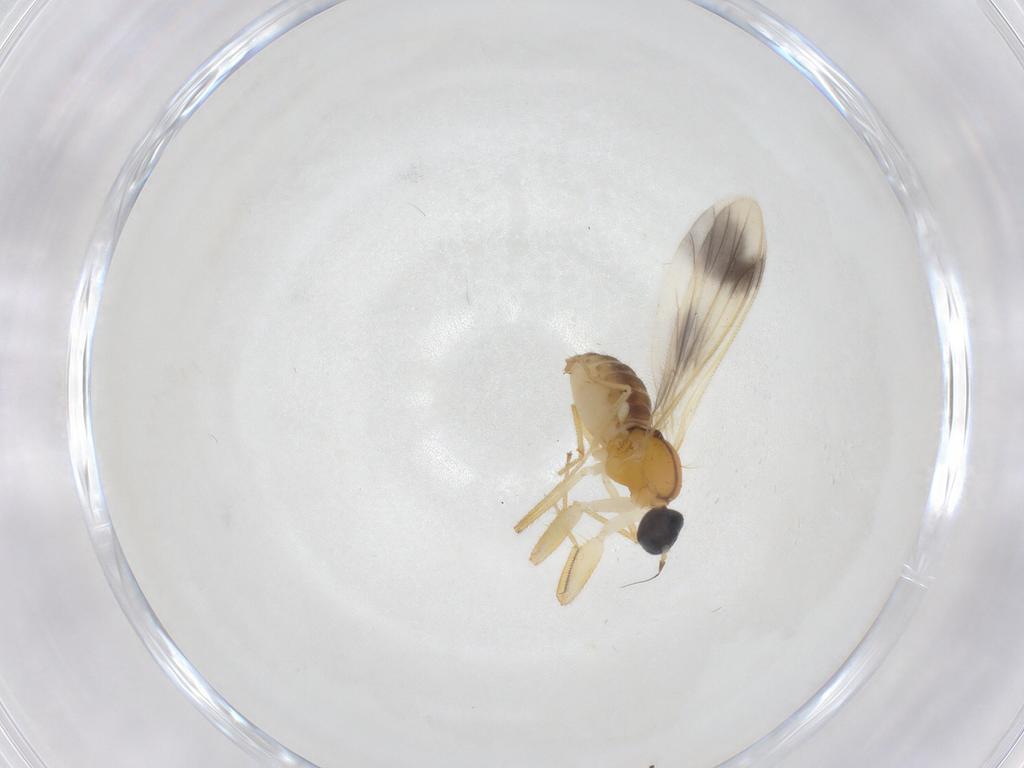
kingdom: Animalia
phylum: Arthropoda
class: Insecta
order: Diptera
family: Empididae
